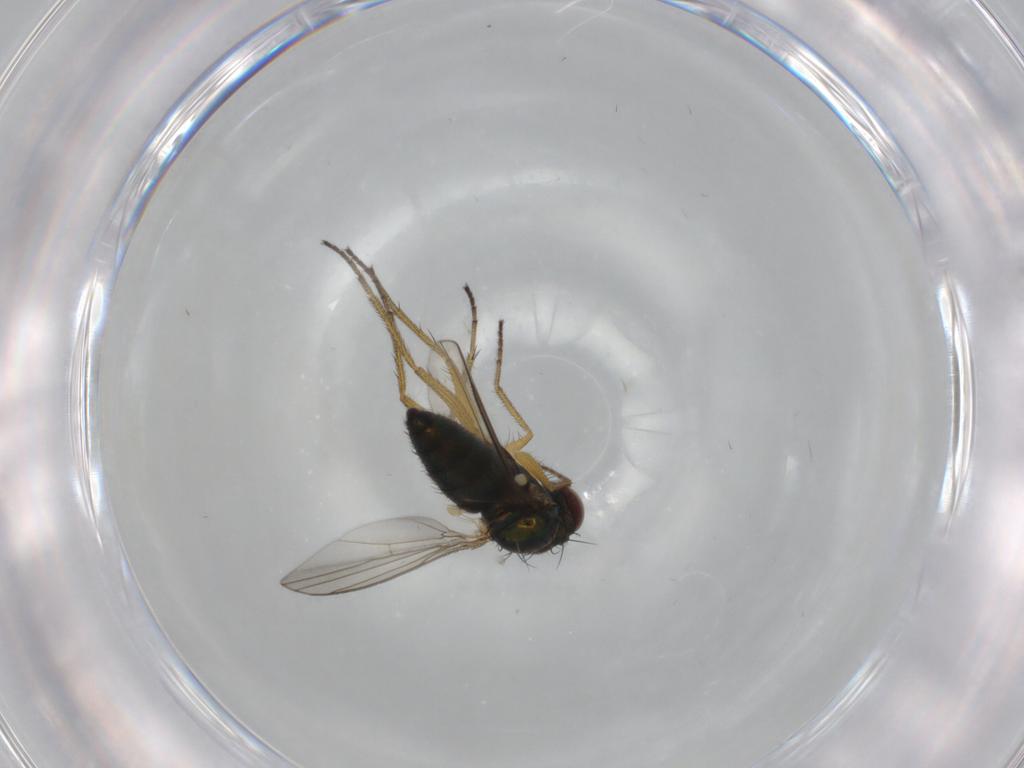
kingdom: Animalia
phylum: Arthropoda
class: Insecta
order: Diptera
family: Dolichopodidae
